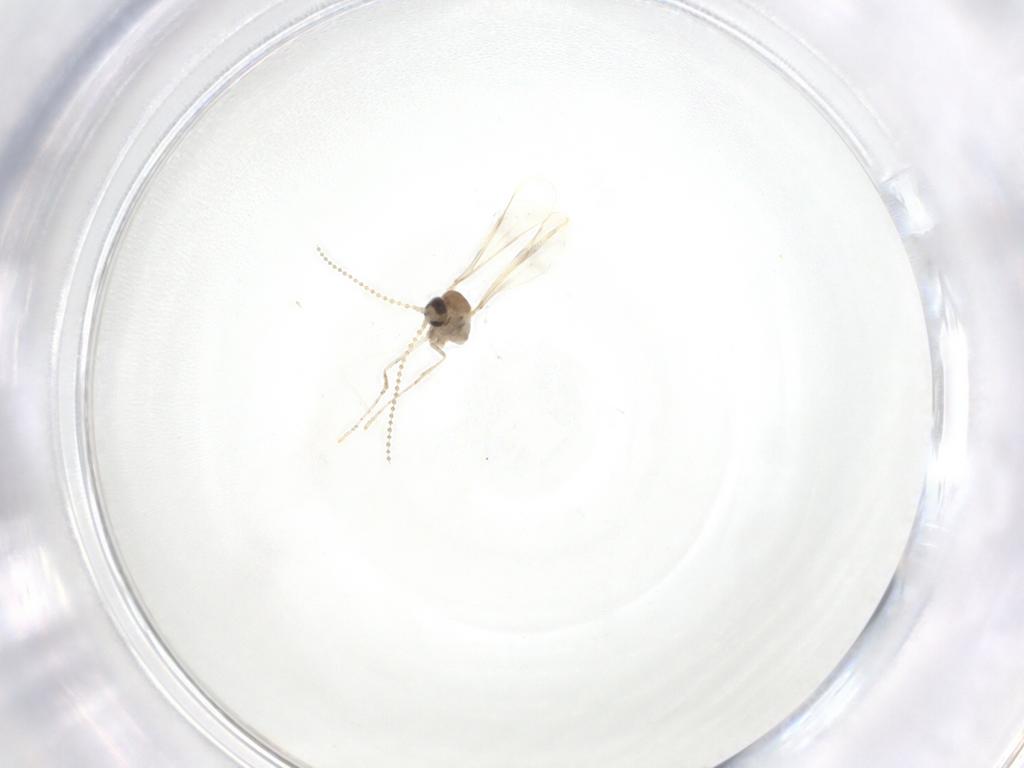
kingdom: Animalia
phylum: Arthropoda
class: Insecta
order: Diptera
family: Cecidomyiidae
